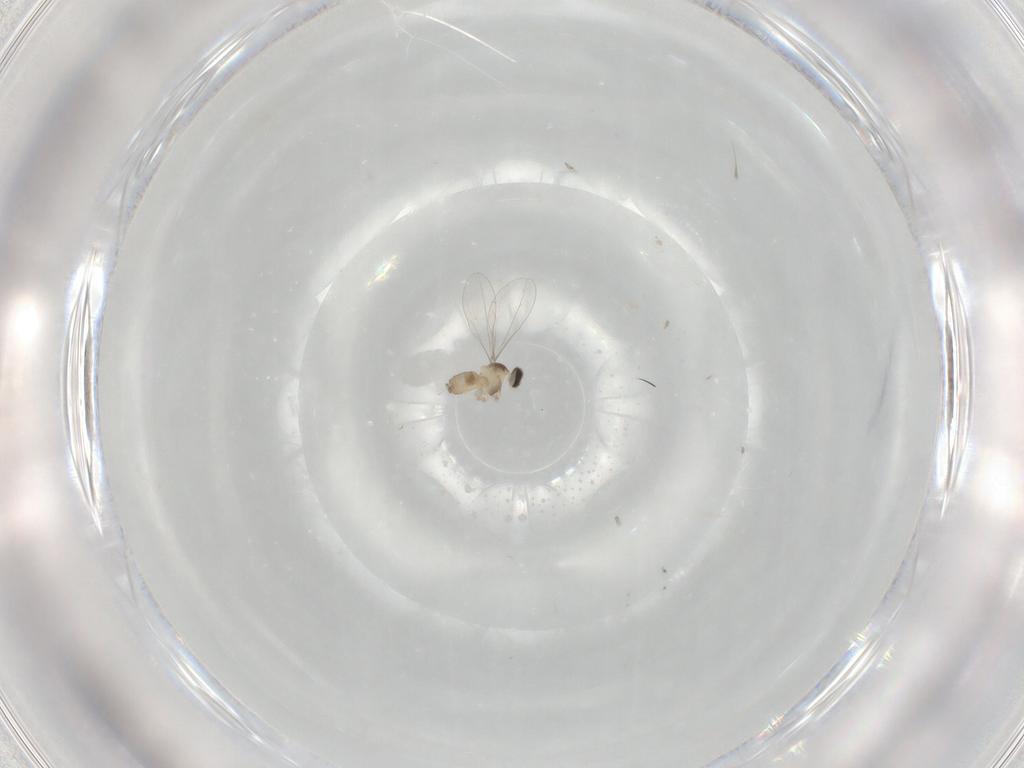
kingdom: Animalia
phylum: Arthropoda
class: Insecta
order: Diptera
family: Cecidomyiidae
